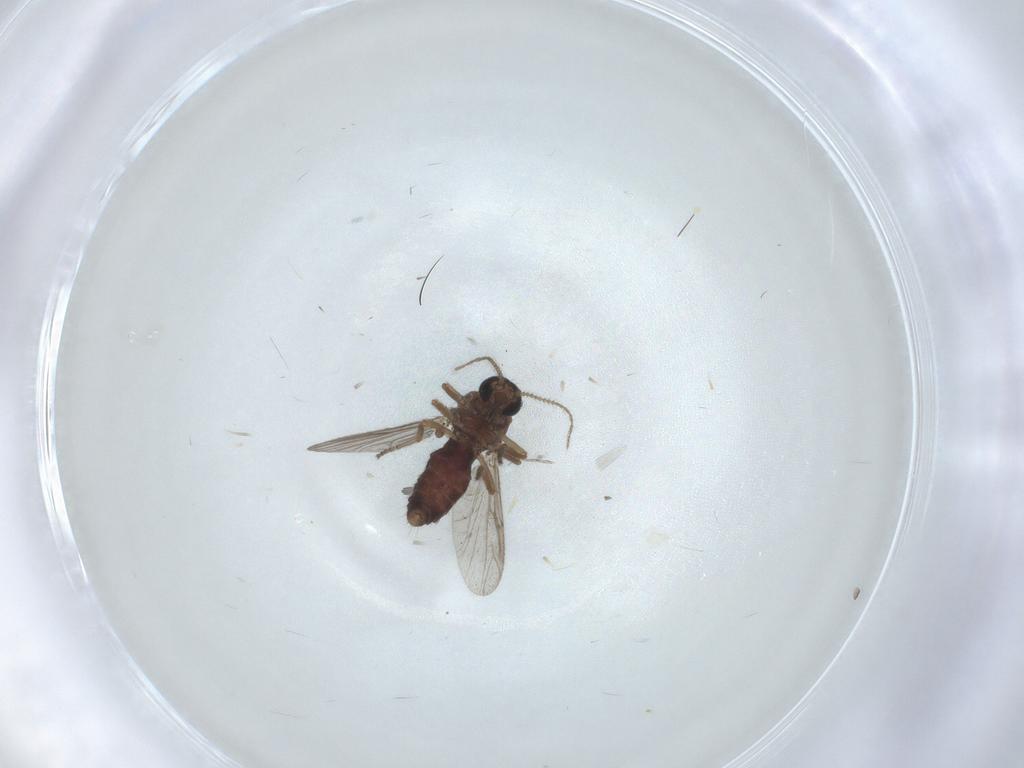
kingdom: Animalia
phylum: Arthropoda
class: Insecta
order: Diptera
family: Ceratopogonidae
